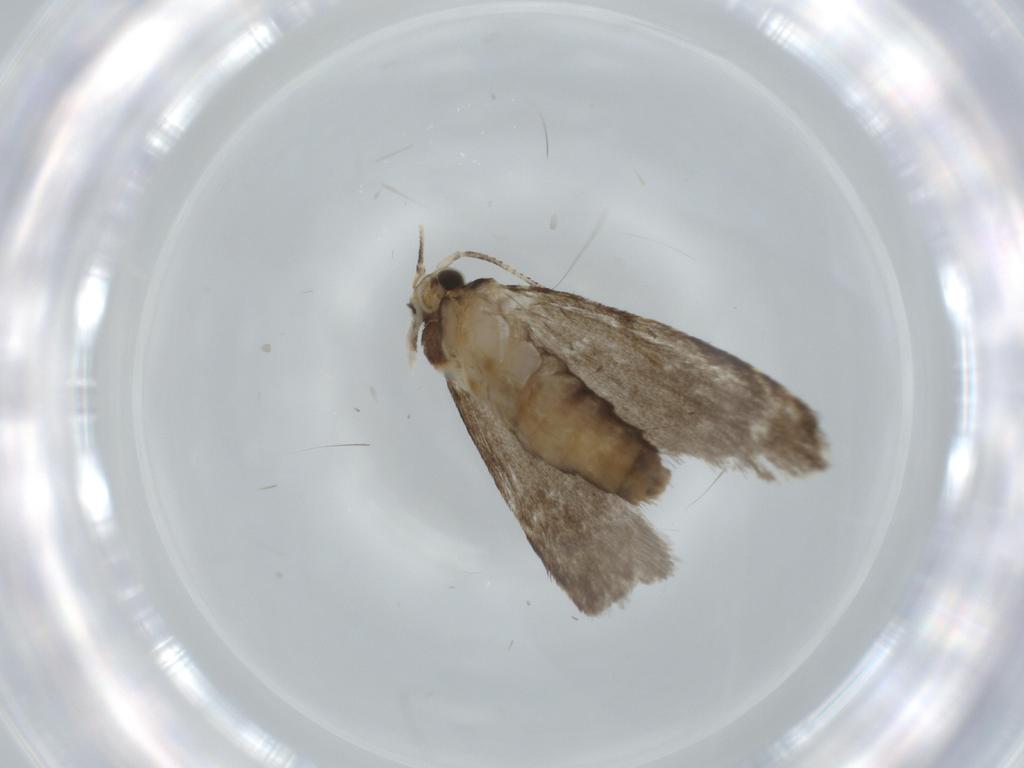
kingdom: Animalia
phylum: Arthropoda
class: Insecta
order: Lepidoptera
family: Tineidae
